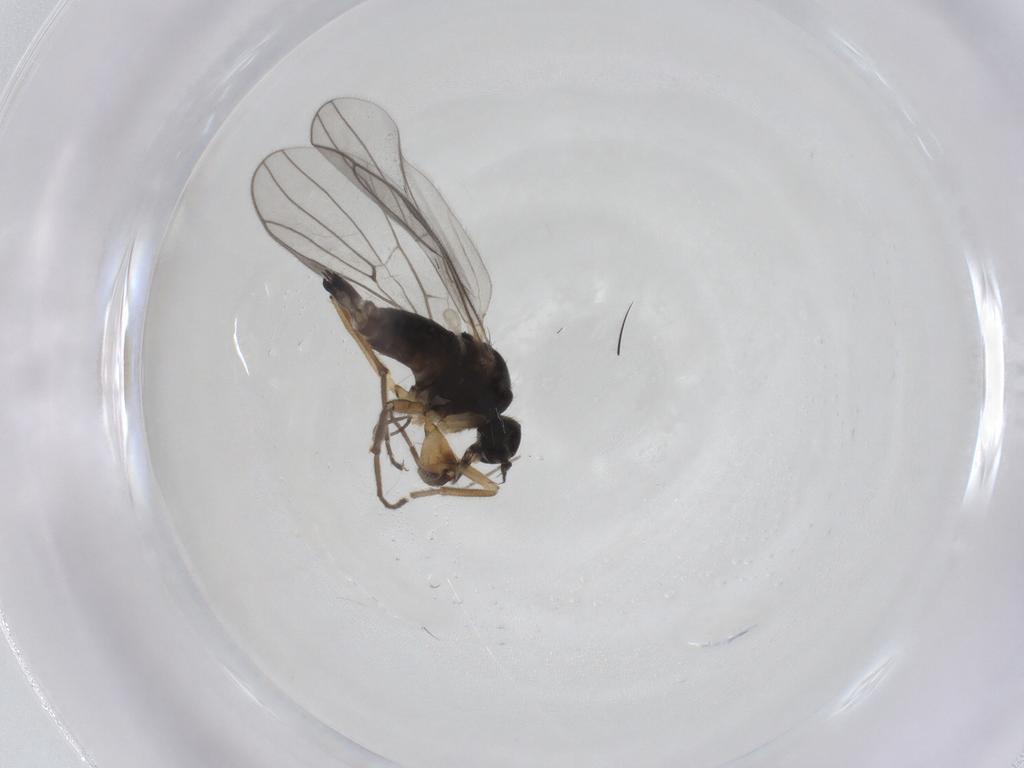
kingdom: Animalia
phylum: Arthropoda
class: Insecta
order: Diptera
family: Hybotidae
